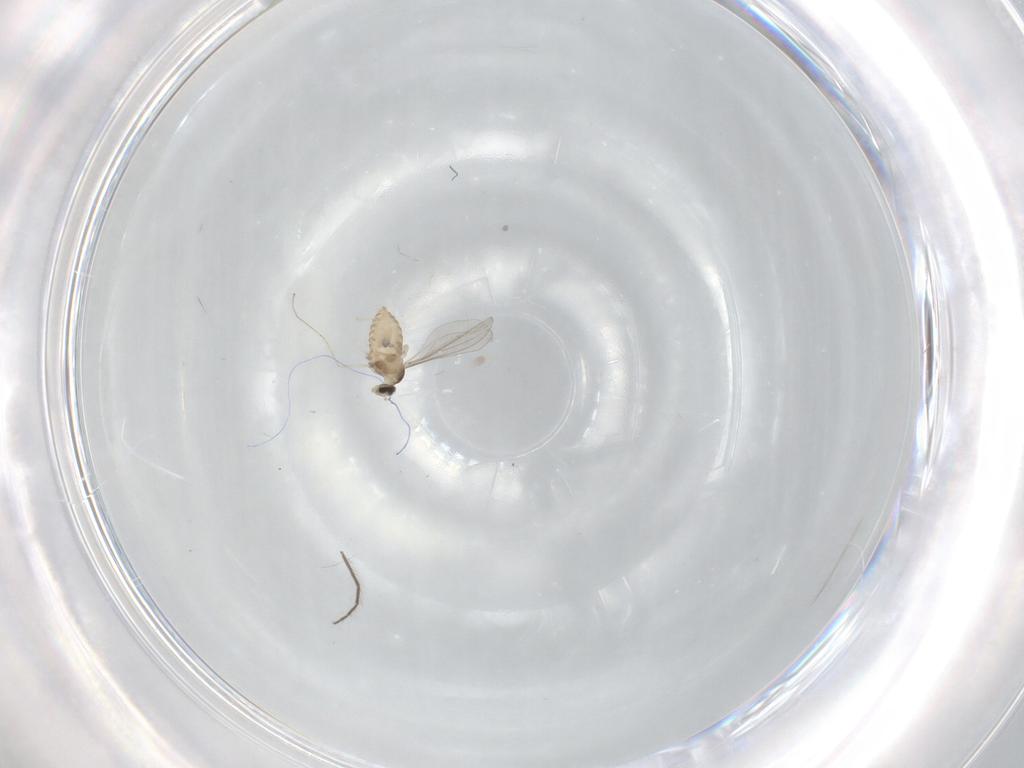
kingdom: Animalia
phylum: Arthropoda
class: Insecta
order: Diptera
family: Cecidomyiidae
